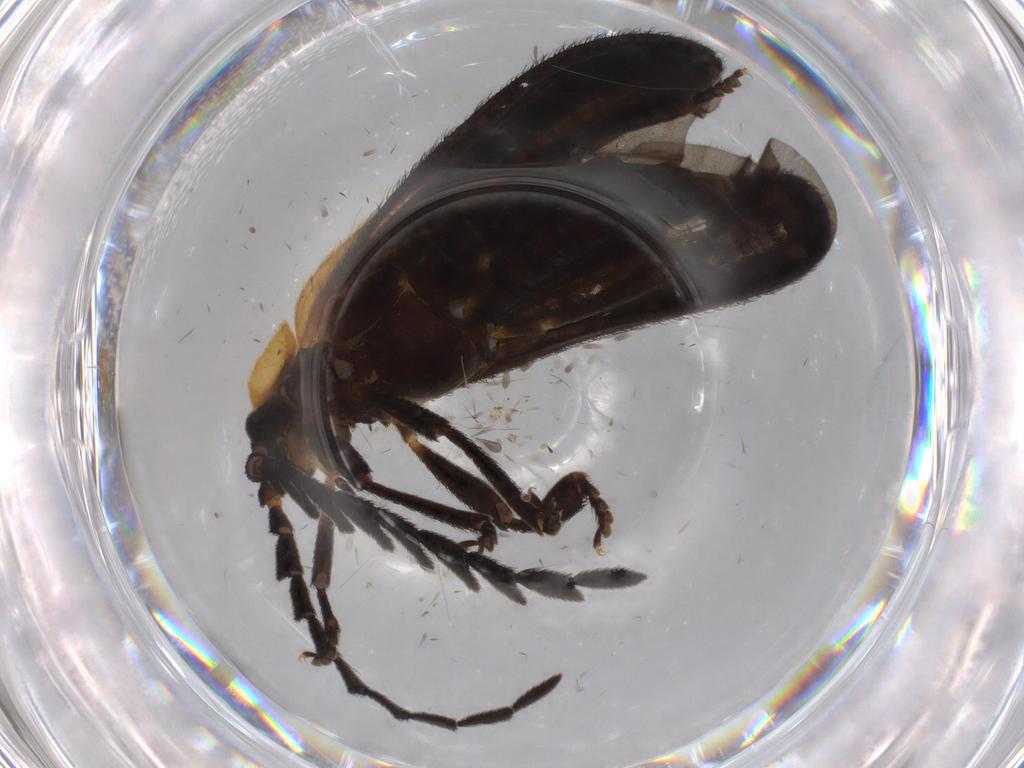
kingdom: Animalia
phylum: Arthropoda
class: Insecta
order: Coleoptera
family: Lycidae
